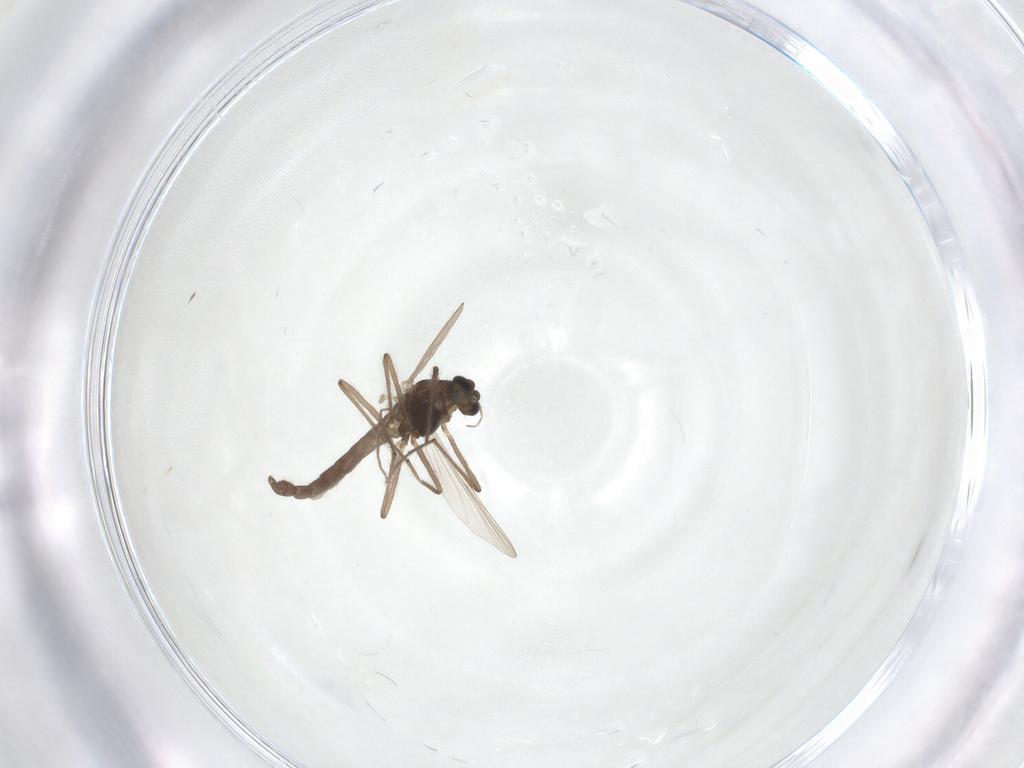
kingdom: Animalia
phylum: Arthropoda
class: Insecta
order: Diptera
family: Chironomidae
